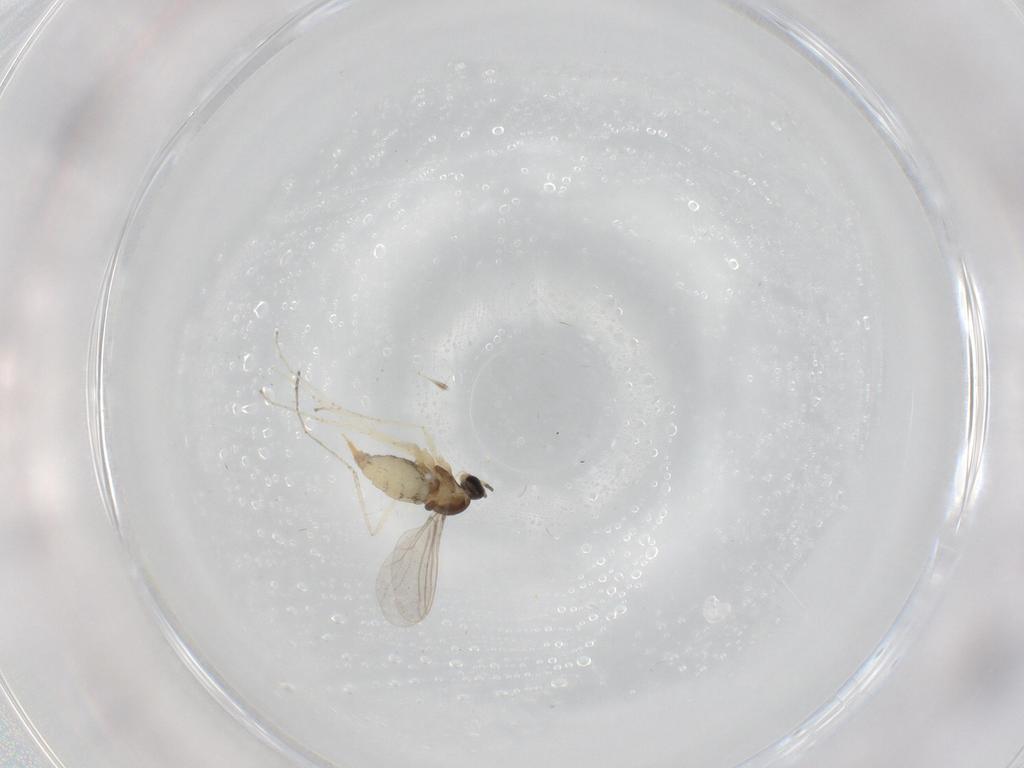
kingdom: Animalia
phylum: Arthropoda
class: Insecta
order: Diptera
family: Cecidomyiidae
